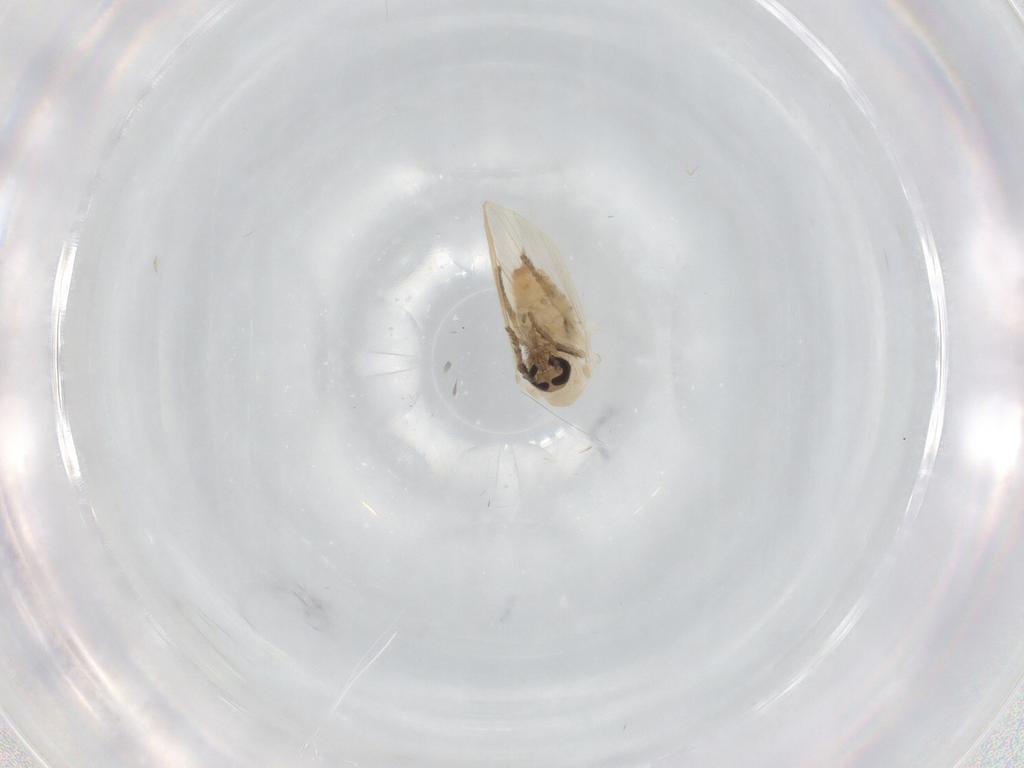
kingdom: Animalia
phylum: Arthropoda
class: Insecta
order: Diptera
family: Psychodidae
